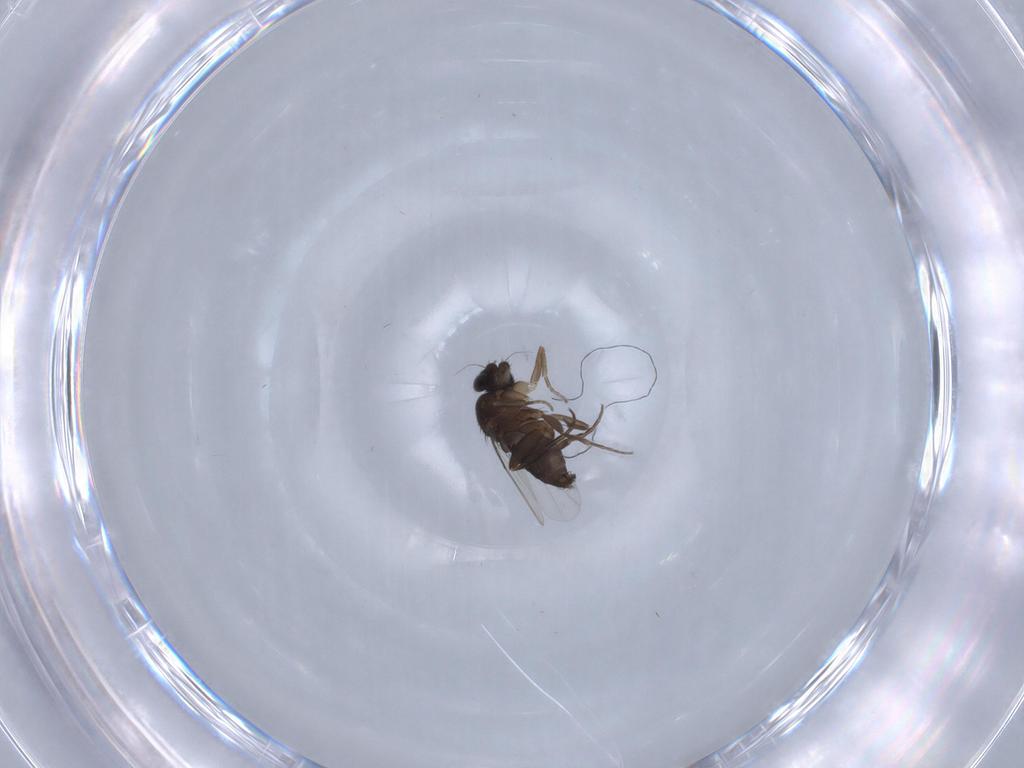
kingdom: Animalia
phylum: Arthropoda
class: Insecta
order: Diptera
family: Phoridae
